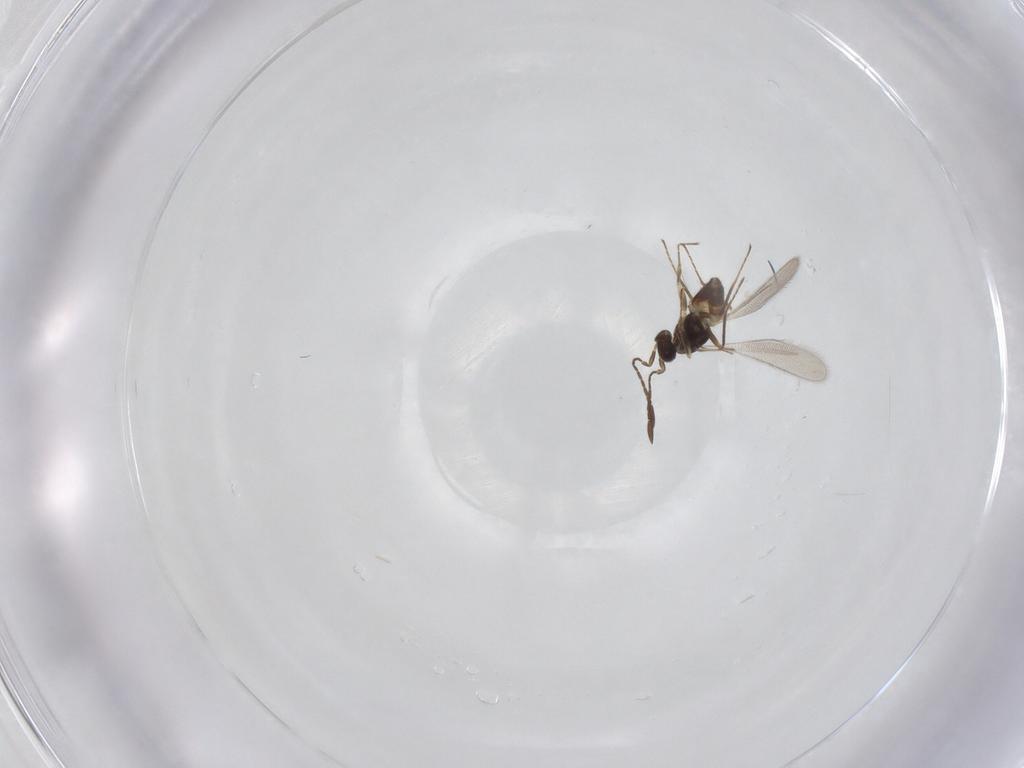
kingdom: Animalia
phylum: Arthropoda
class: Insecta
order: Hymenoptera
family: Mymaridae
